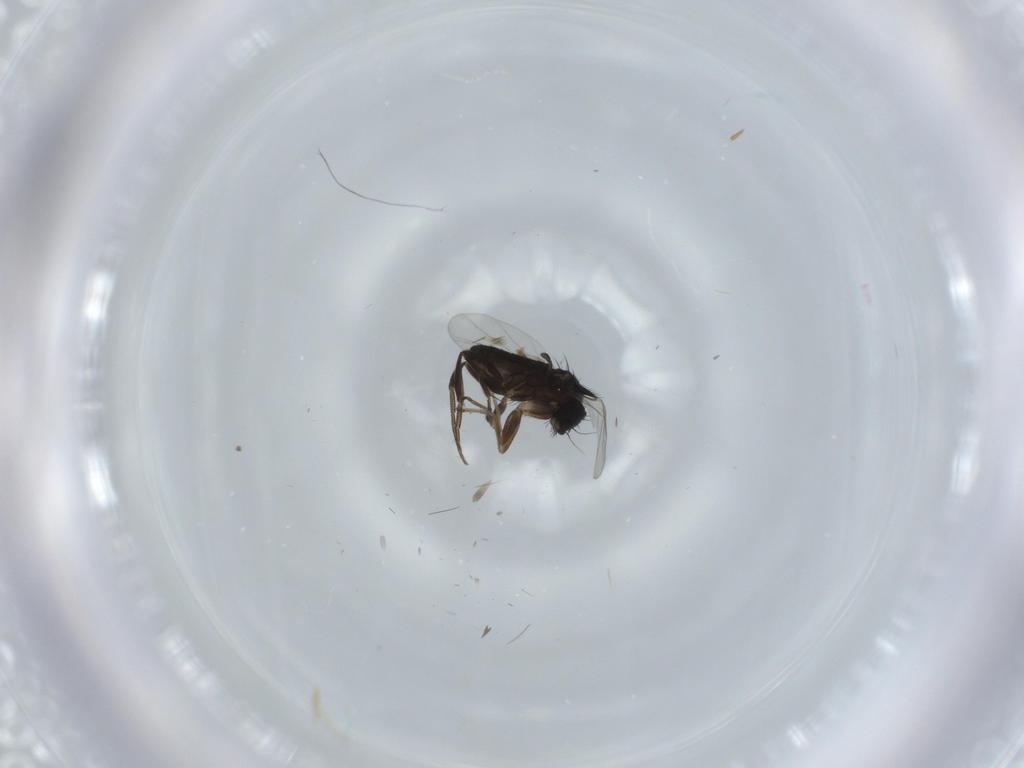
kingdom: Animalia
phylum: Arthropoda
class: Insecta
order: Diptera
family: Phoridae
